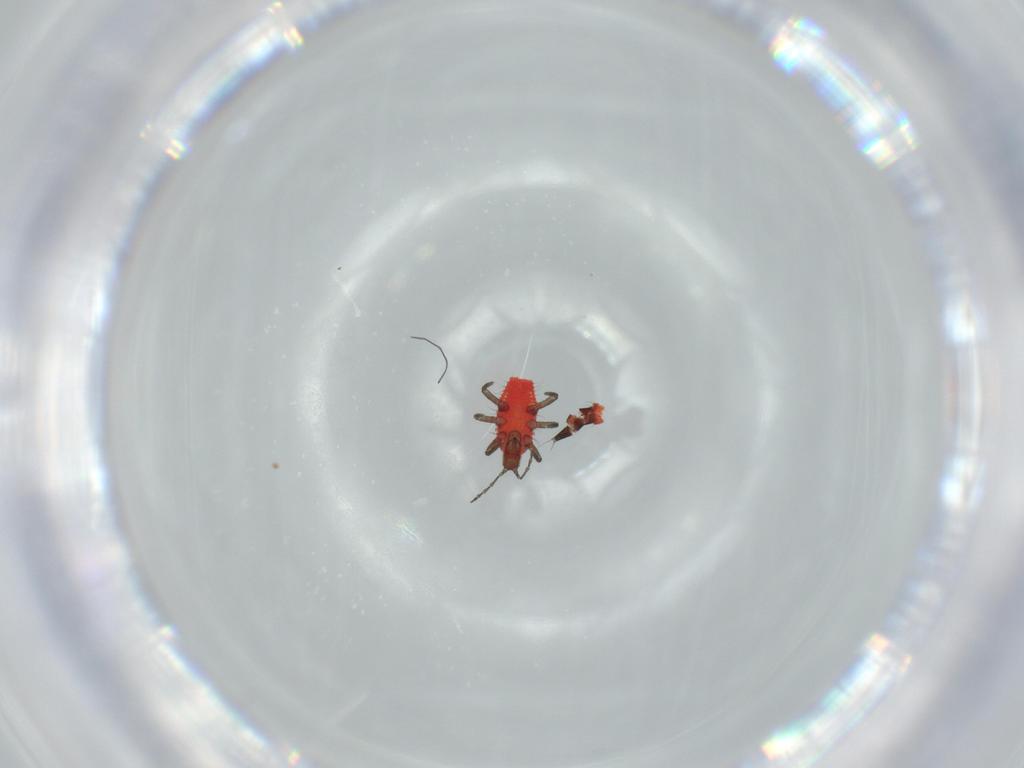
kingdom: Animalia
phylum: Arthropoda
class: Insecta
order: Thysanoptera
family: Phlaeothripidae
